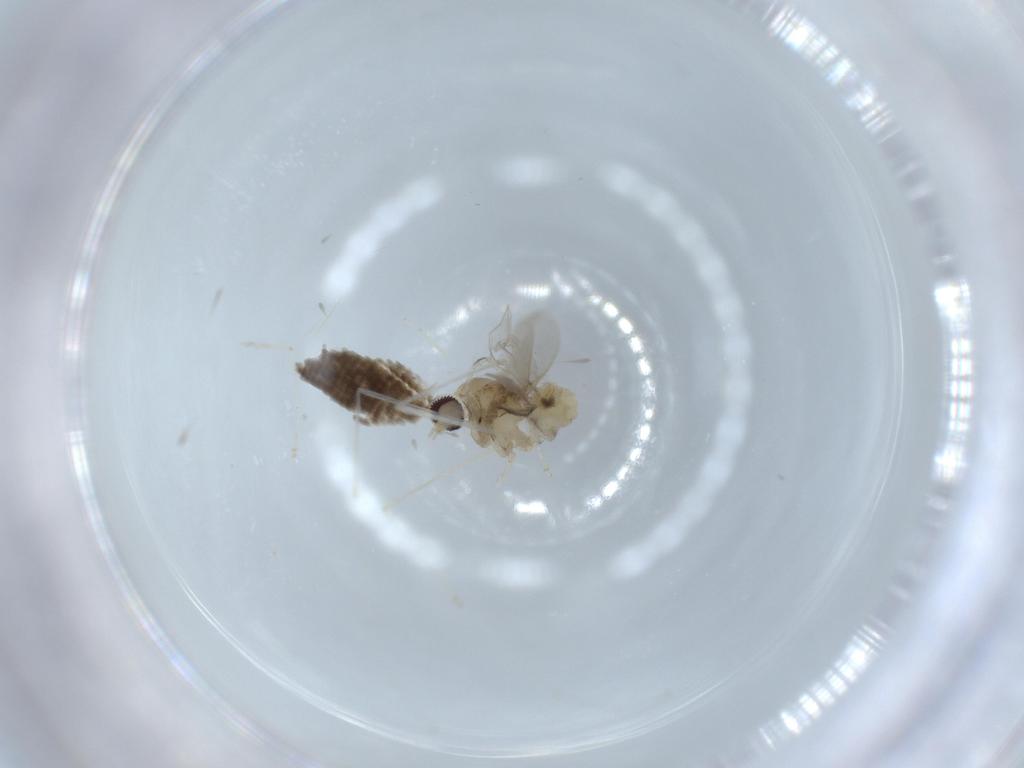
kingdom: Animalia
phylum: Arthropoda
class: Insecta
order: Diptera
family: Cecidomyiidae
